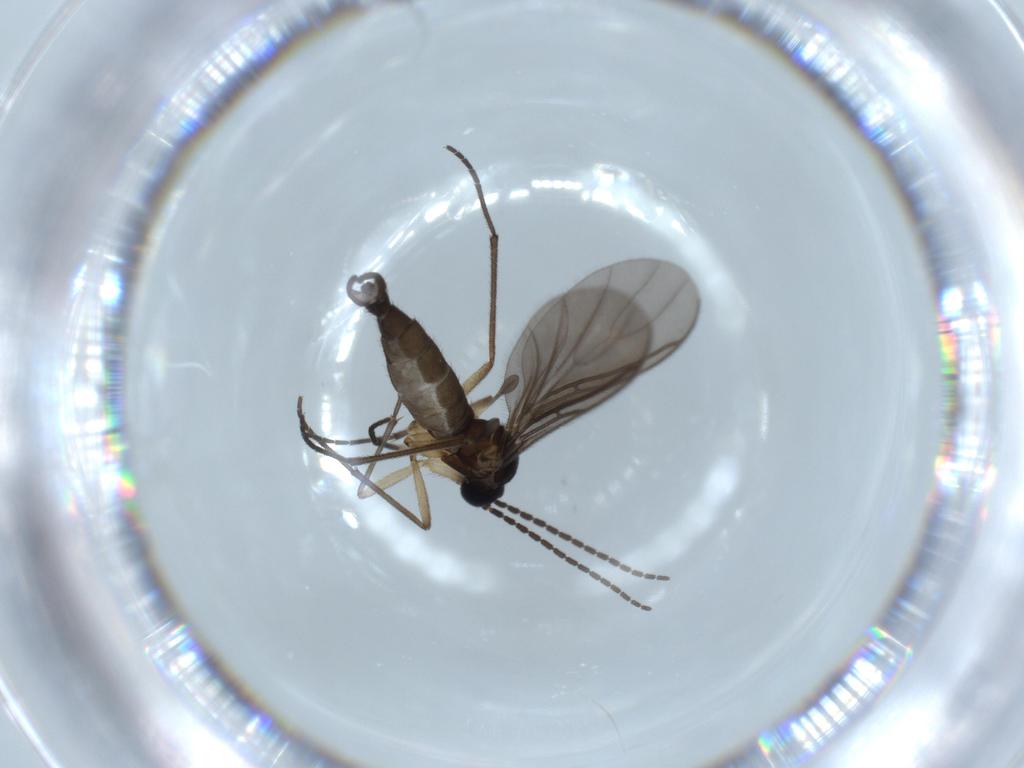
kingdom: Animalia
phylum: Arthropoda
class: Insecta
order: Diptera
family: Sciaridae
